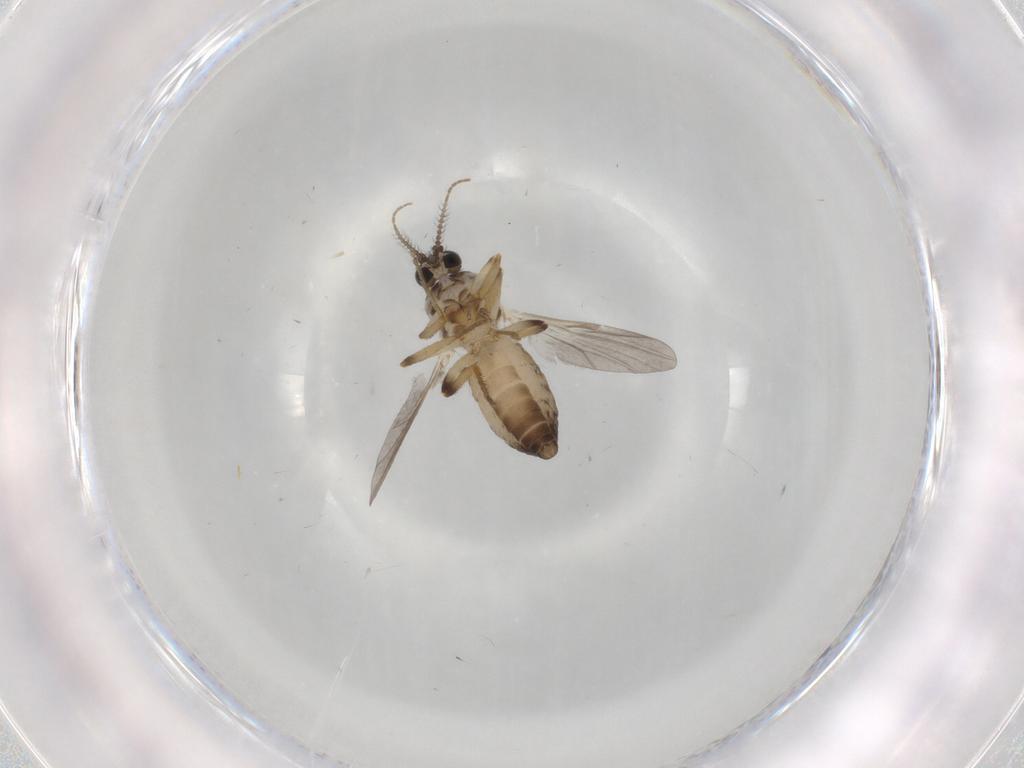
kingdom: Animalia
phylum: Arthropoda
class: Insecta
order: Diptera
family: Ceratopogonidae
